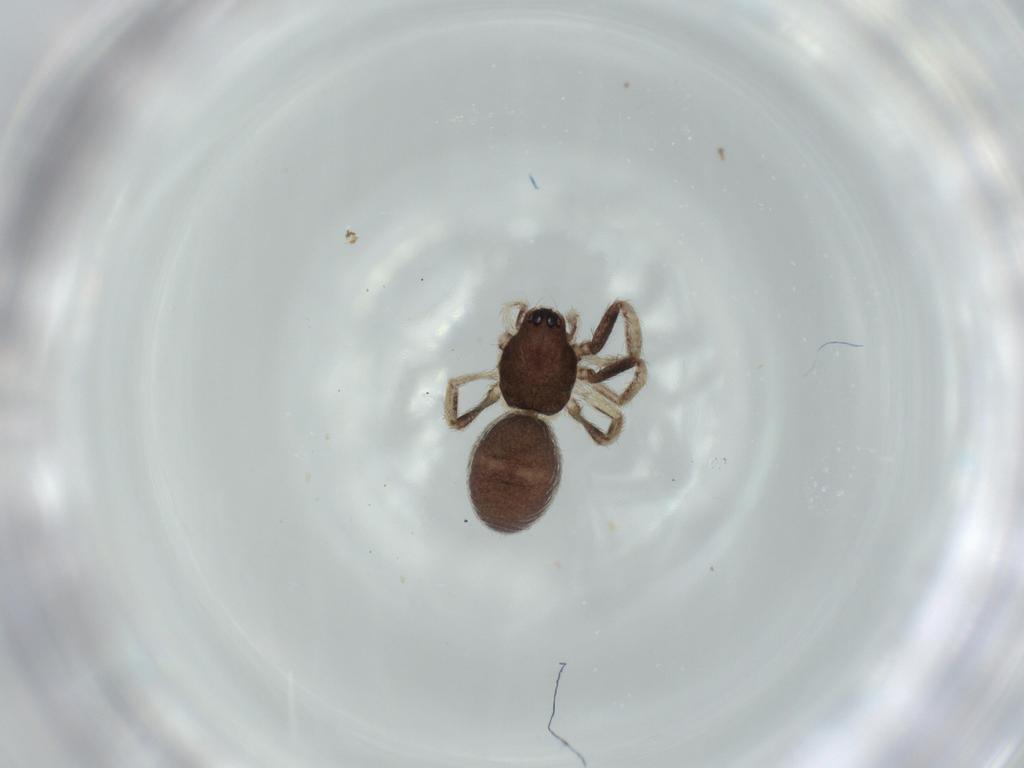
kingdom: Animalia
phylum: Arthropoda
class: Arachnida
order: Araneae
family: Corinnidae
